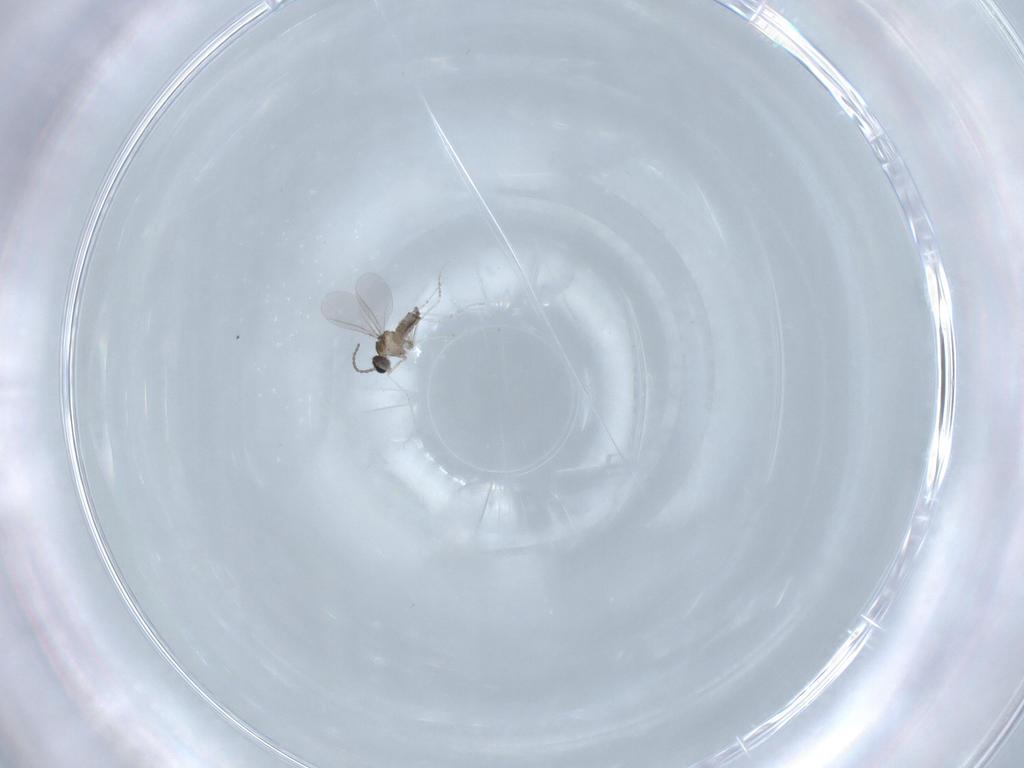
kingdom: Animalia
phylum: Arthropoda
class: Insecta
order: Diptera
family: Cecidomyiidae
